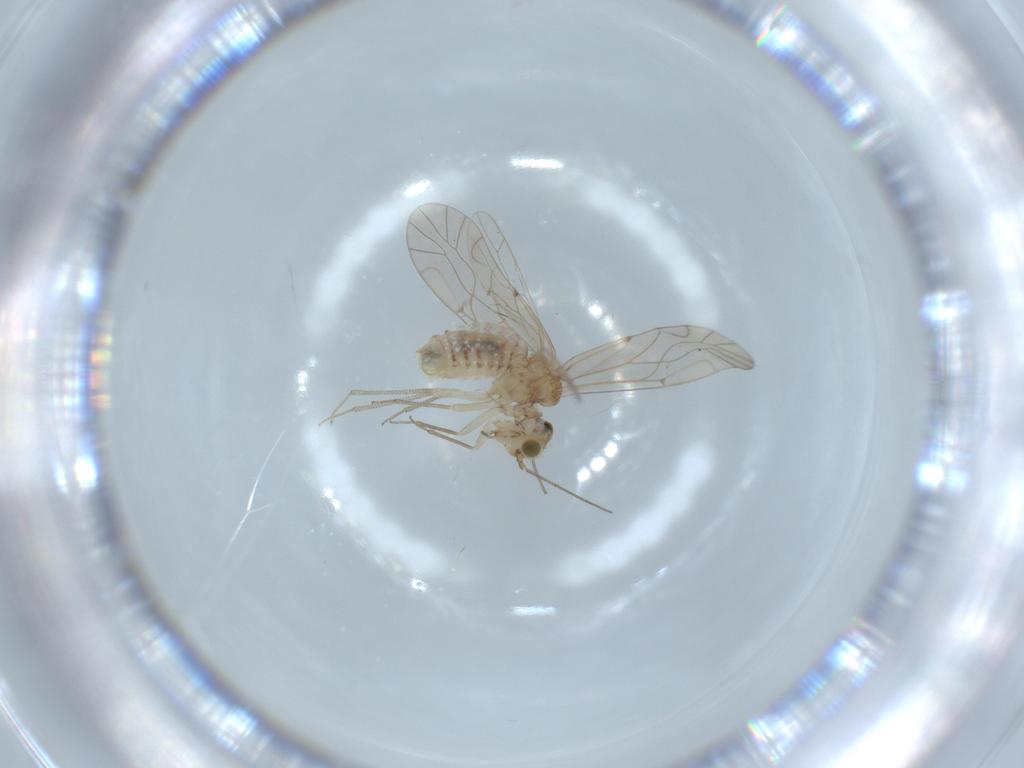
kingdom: Animalia
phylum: Arthropoda
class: Insecta
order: Psocodea
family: Lachesillidae
